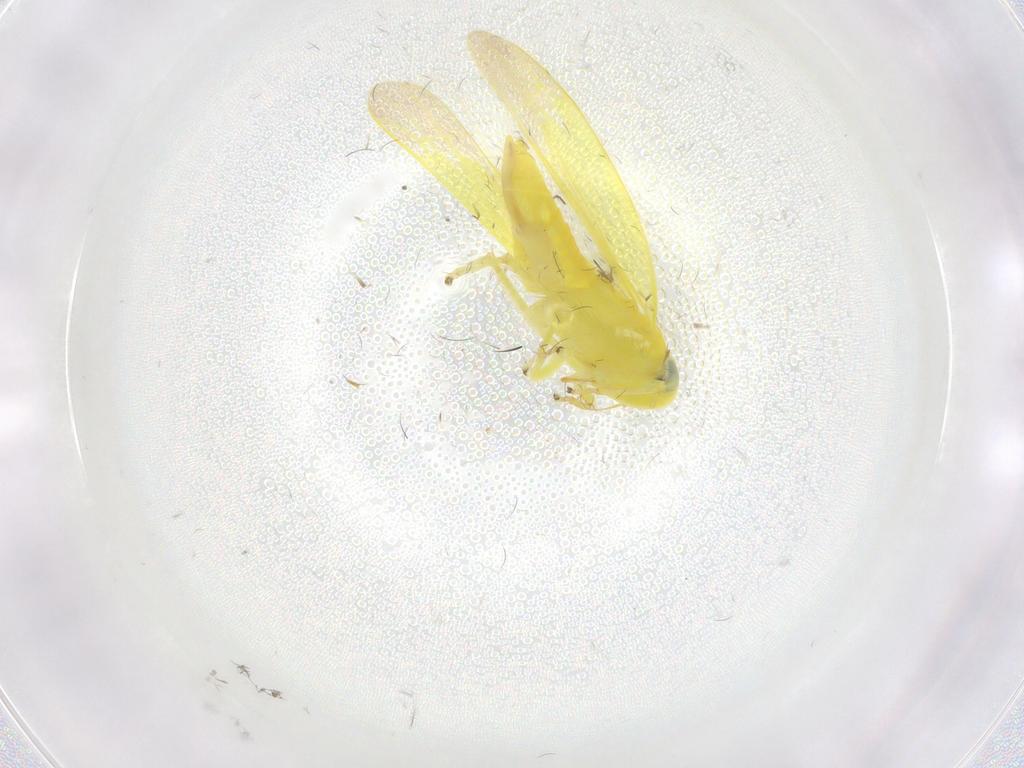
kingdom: Animalia
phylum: Arthropoda
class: Insecta
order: Hemiptera
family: Cicadellidae
